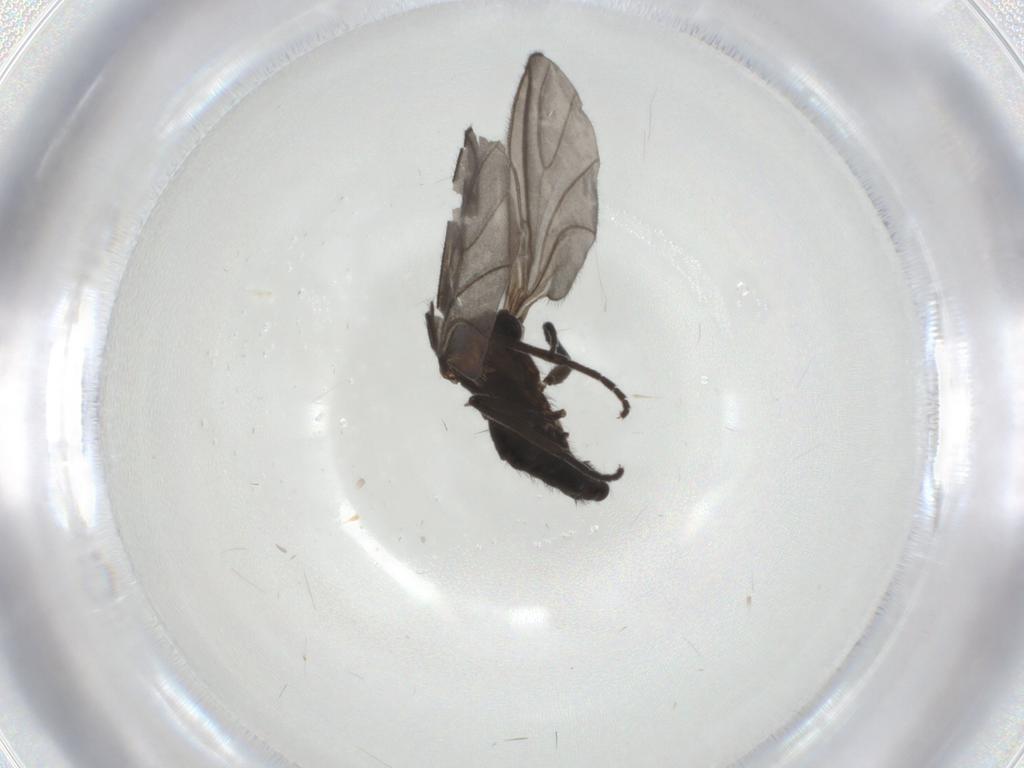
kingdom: Animalia
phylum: Arthropoda
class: Insecta
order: Diptera
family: Sciaridae
